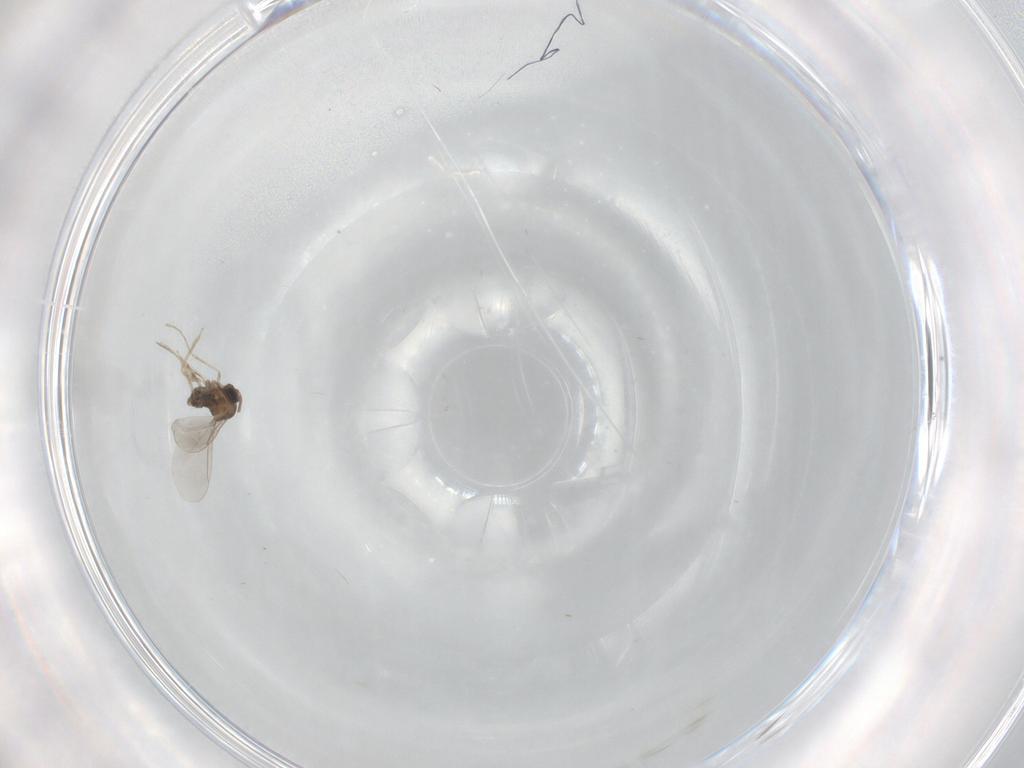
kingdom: Animalia
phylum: Arthropoda
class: Insecta
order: Diptera
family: Cecidomyiidae
